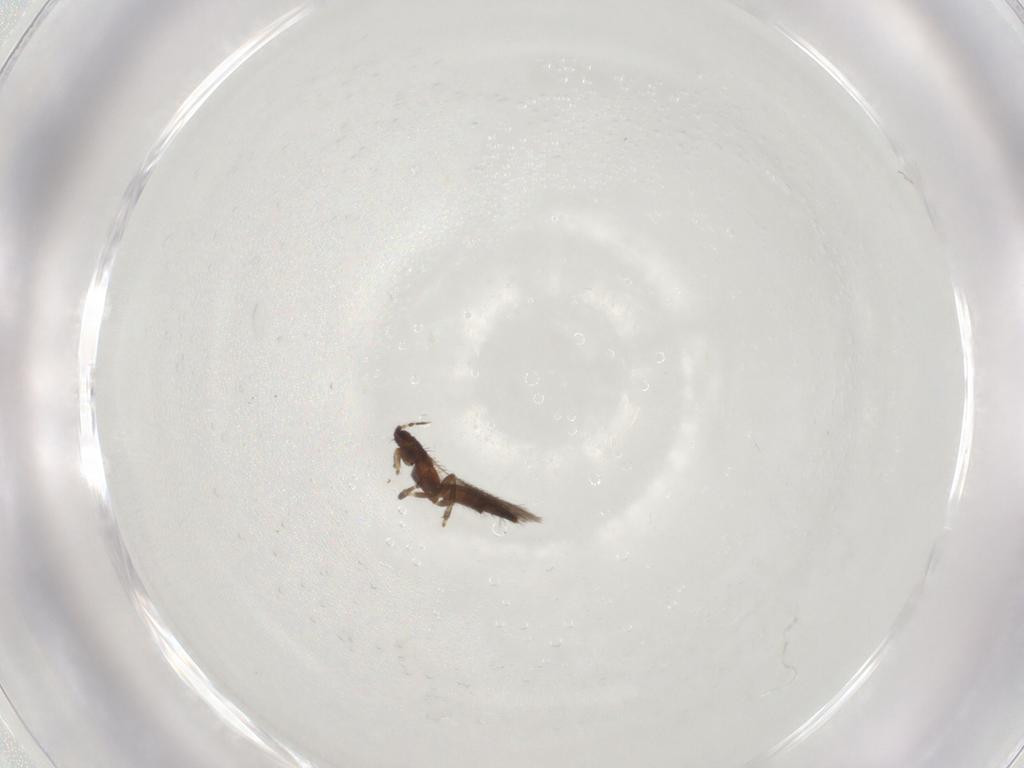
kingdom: Animalia
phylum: Arthropoda
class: Insecta
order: Thysanoptera
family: Thripidae
